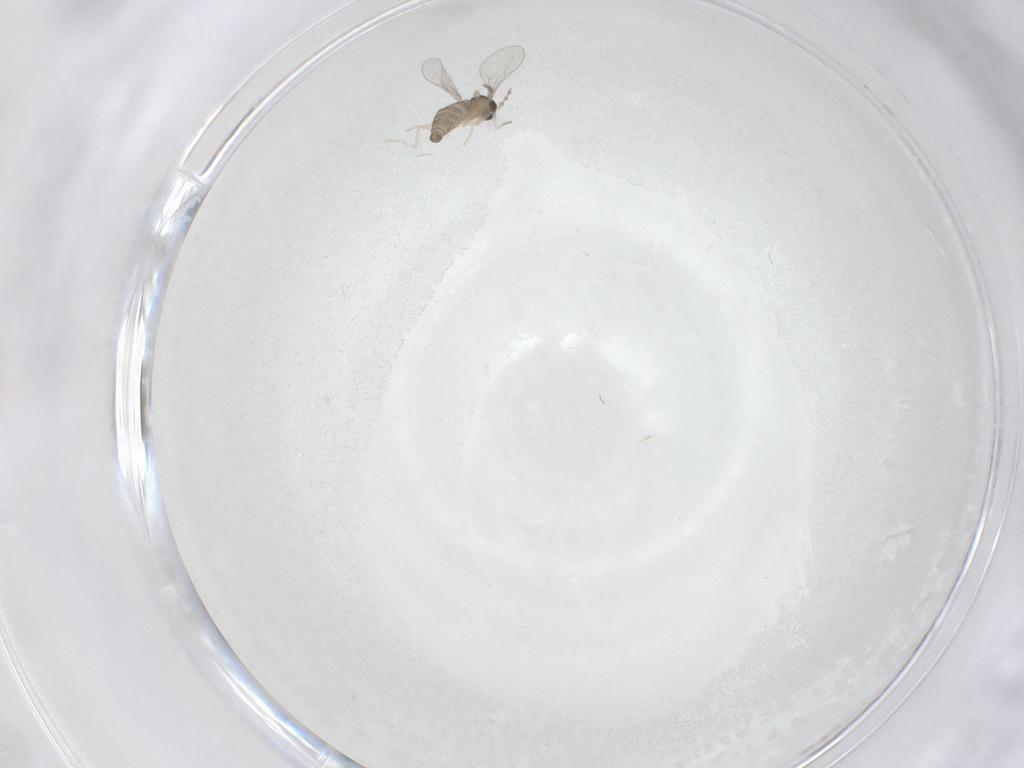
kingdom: Animalia
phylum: Arthropoda
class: Insecta
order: Diptera
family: Cecidomyiidae
